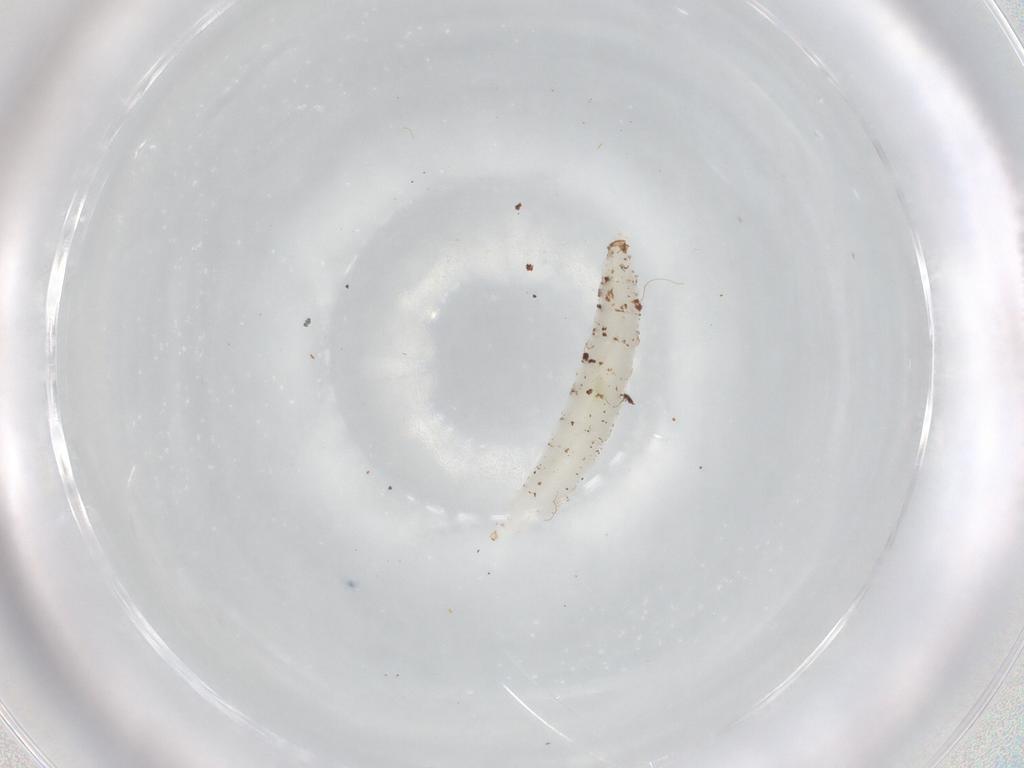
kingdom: Animalia
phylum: Arthropoda
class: Insecta
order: Diptera
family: Cecidomyiidae
